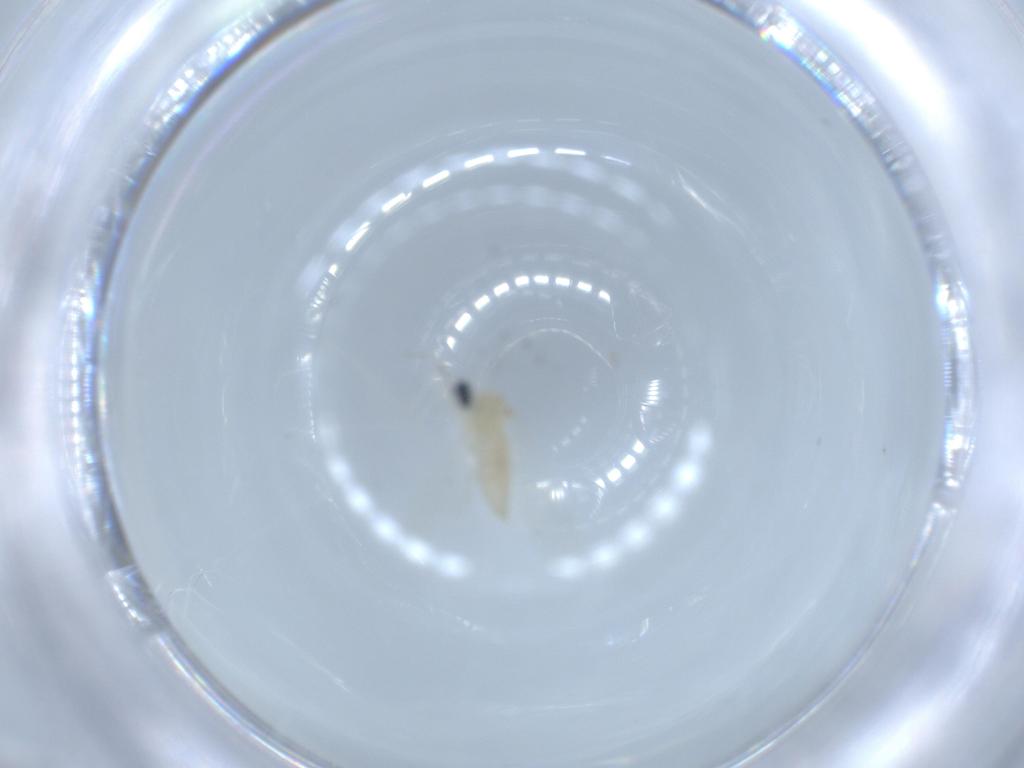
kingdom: Animalia
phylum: Arthropoda
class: Insecta
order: Diptera
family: Cecidomyiidae
